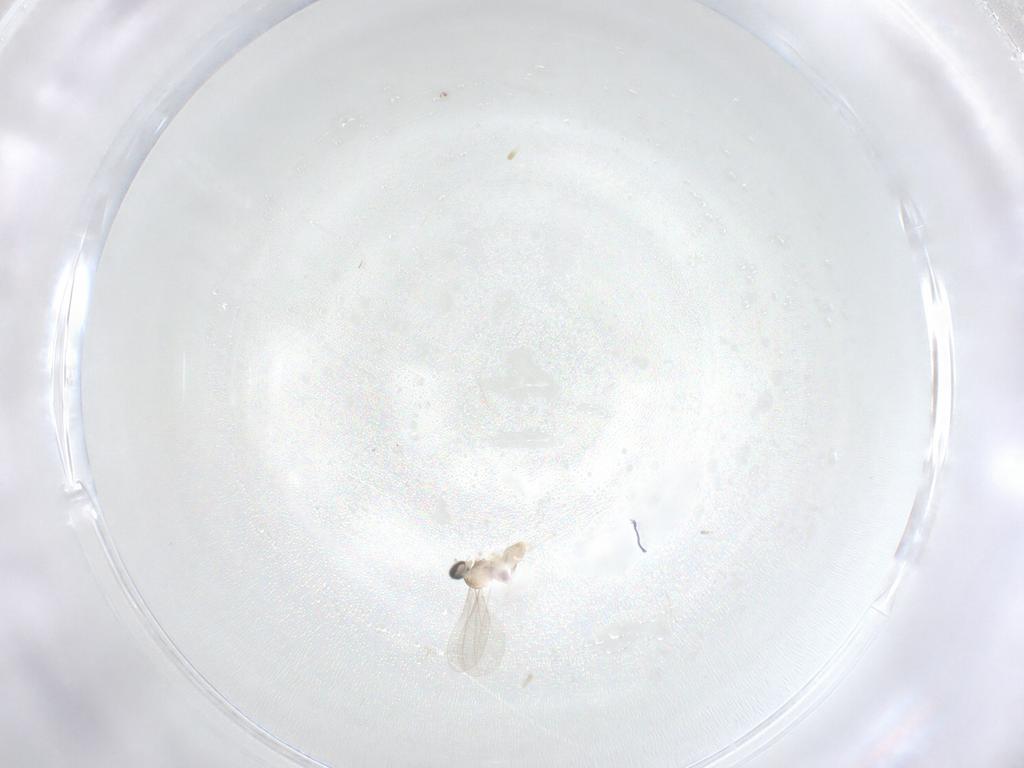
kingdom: Animalia
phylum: Arthropoda
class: Insecta
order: Diptera
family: Cecidomyiidae
